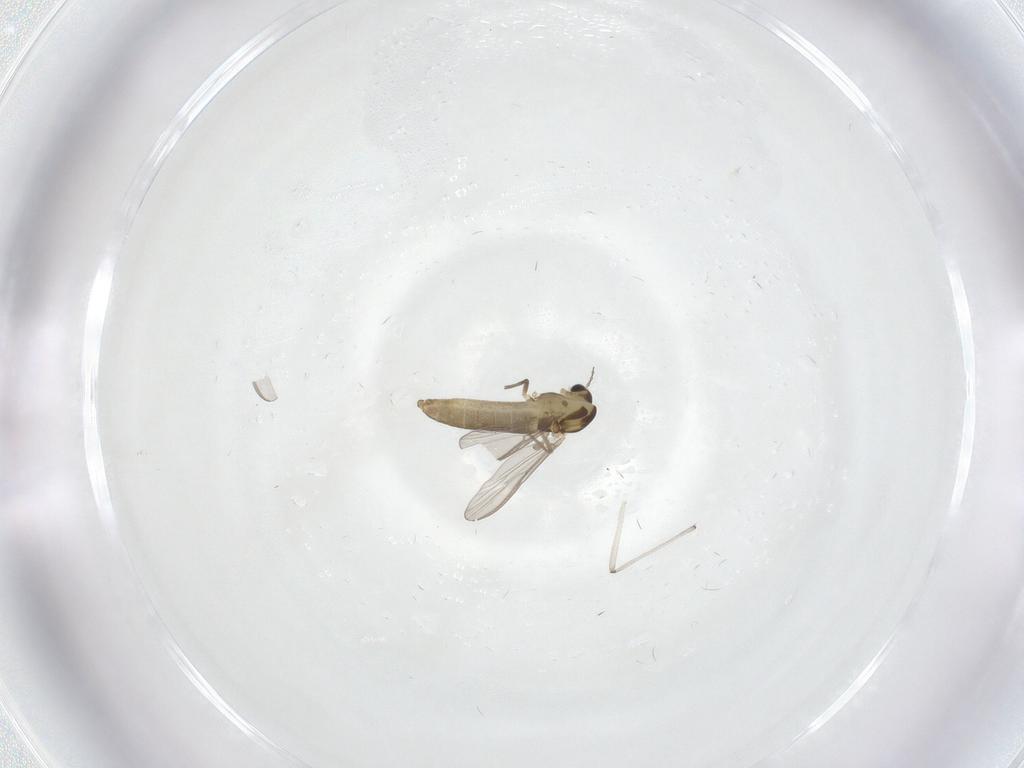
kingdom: Animalia
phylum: Arthropoda
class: Insecta
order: Diptera
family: Chironomidae
